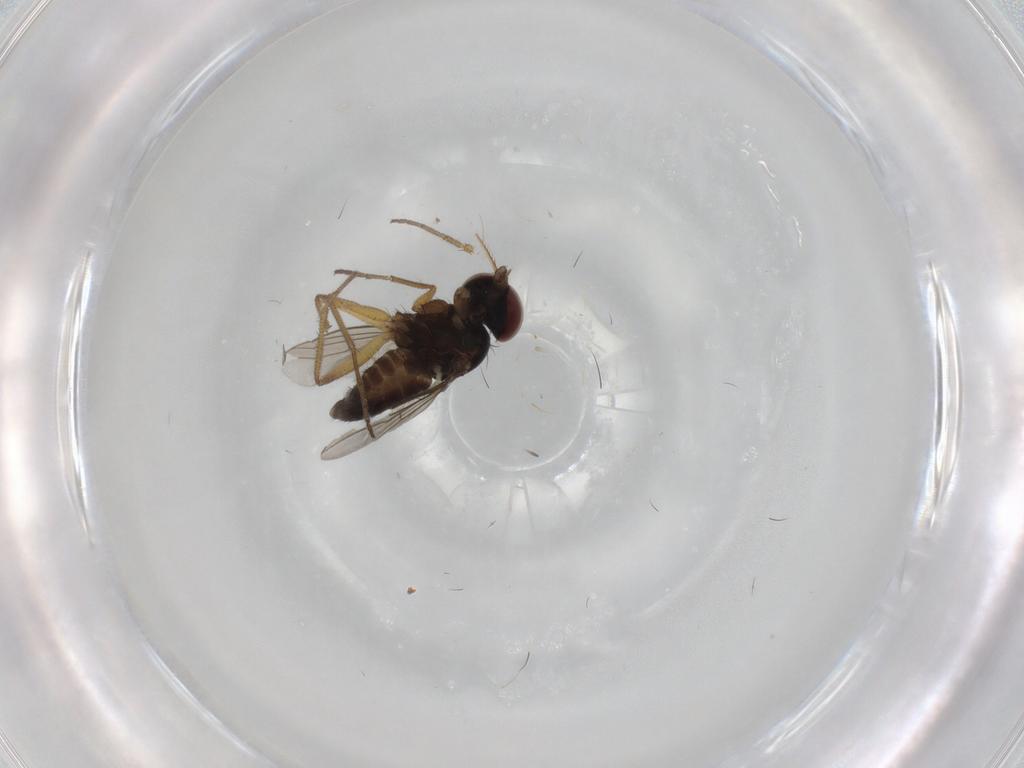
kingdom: Animalia
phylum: Arthropoda
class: Insecta
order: Diptera
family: Dolichopodidae
